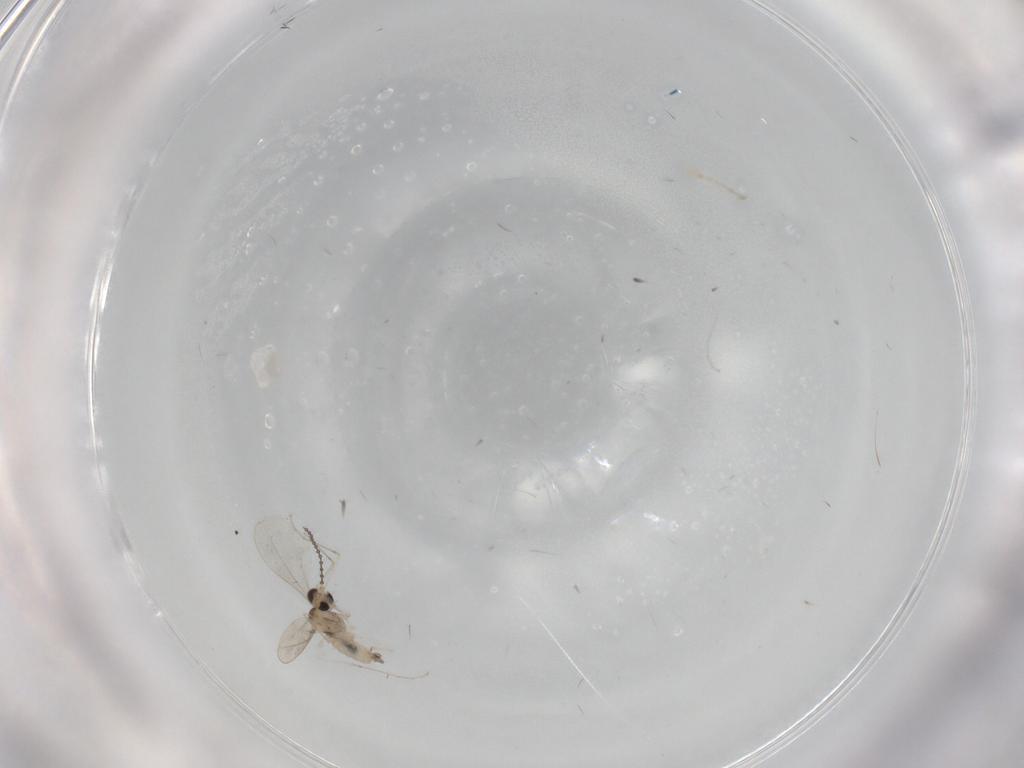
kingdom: Animalia
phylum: Arthropoda
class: Insecta
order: Diptera
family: Cecidomyiidae
